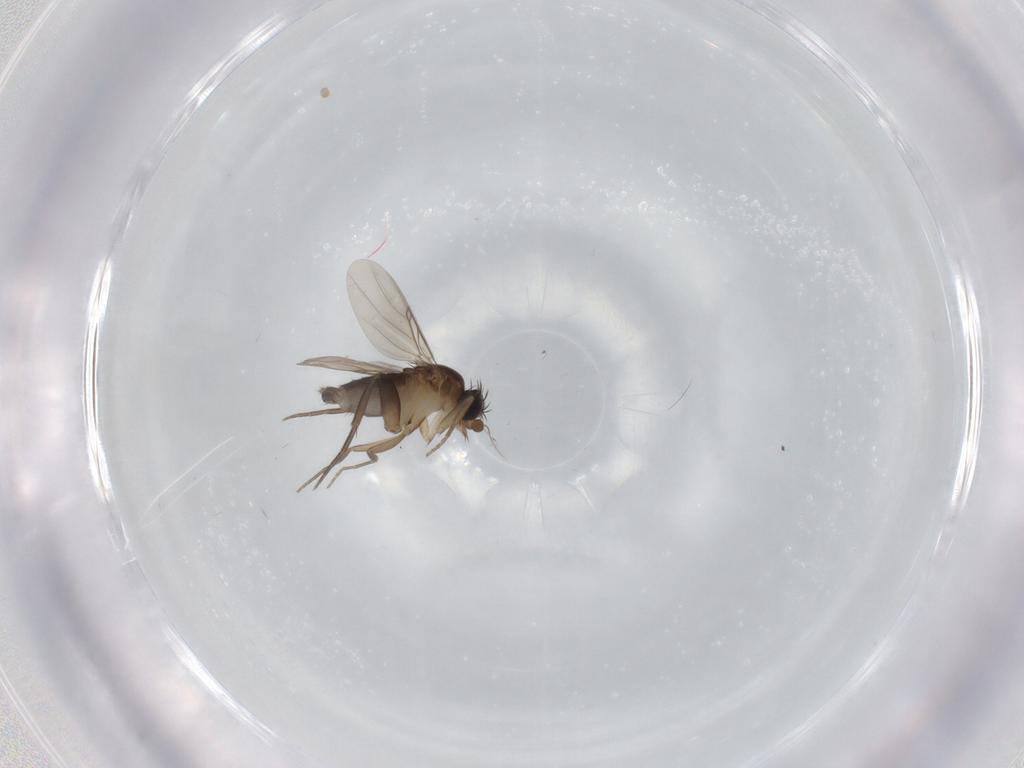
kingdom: Animalia
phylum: Arthropoda
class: Insecta
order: Diptera
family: Phoridae
